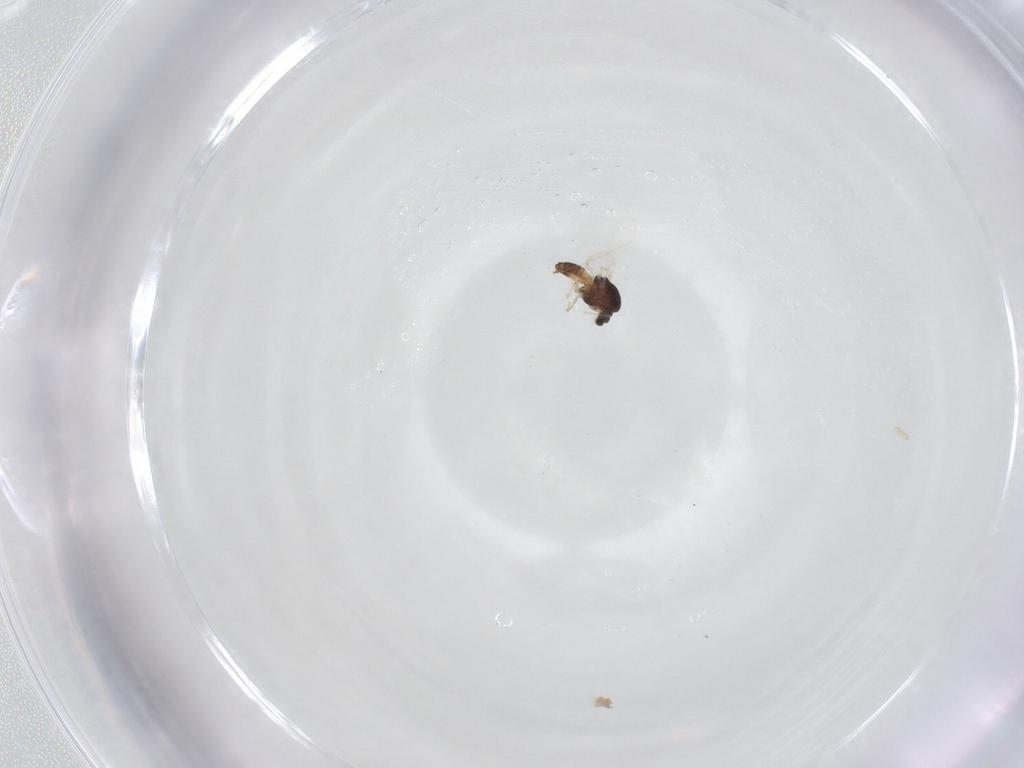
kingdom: Animalia
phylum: Arthropoda
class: Insecta
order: Diptera
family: Chironomidae
